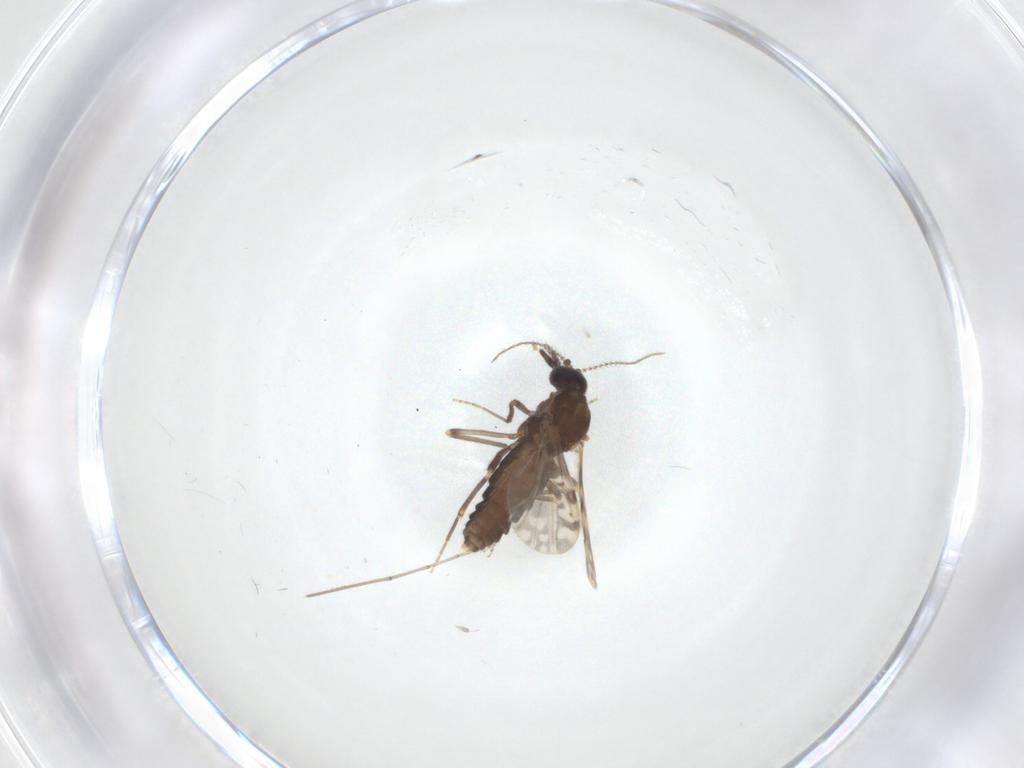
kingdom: Animalia
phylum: Arthropoda
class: Insecta
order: Diptera
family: Ceratopogonidae
